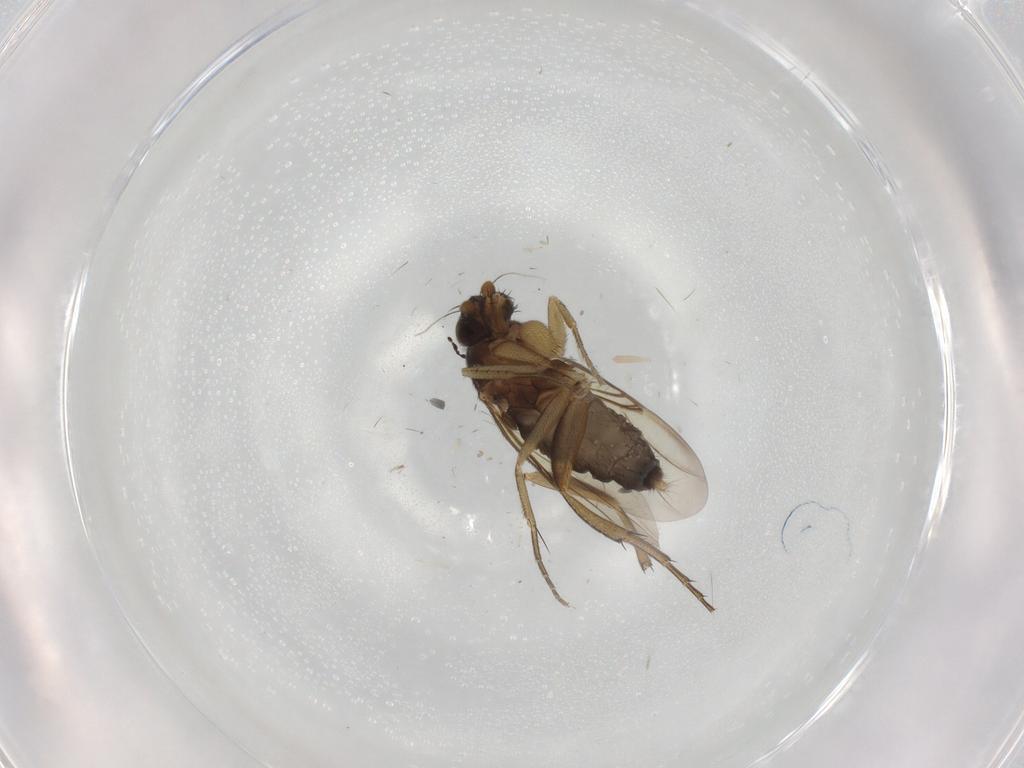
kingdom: Animalia
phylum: Arthropoda
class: Insecta
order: Diptera
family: Phoridae
